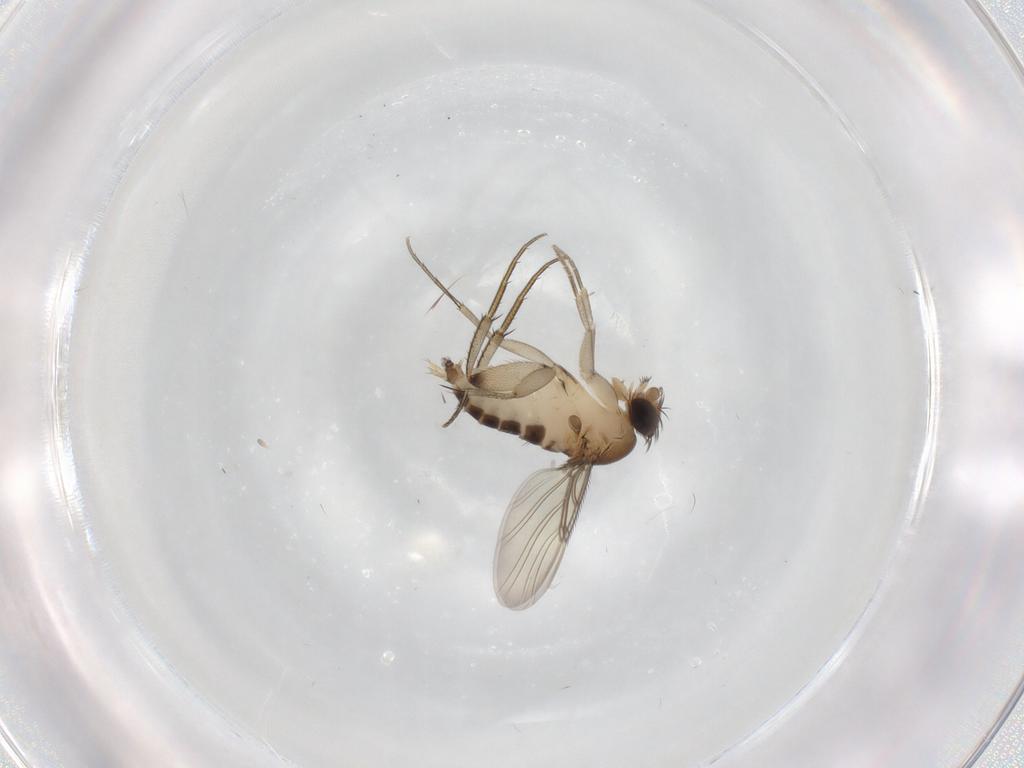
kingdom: Animalia
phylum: Arthropoda
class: Insecta
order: Diptera
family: Phoridae
